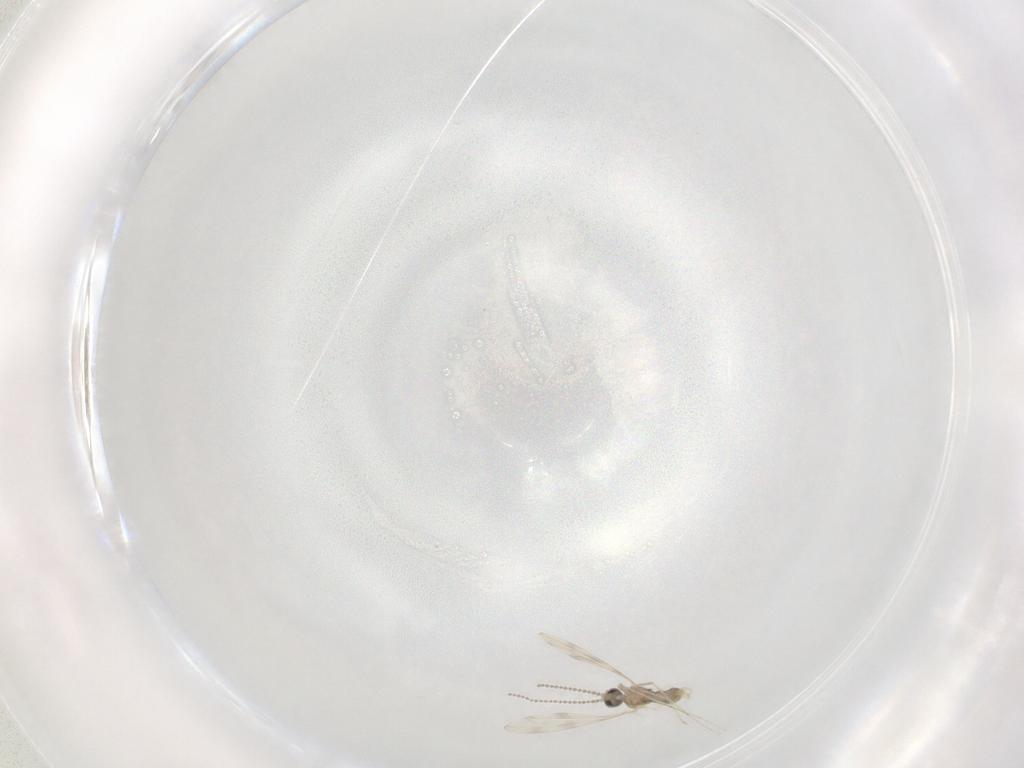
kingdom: Animalia
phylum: Arthropoda
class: Insecta
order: Diptera
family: Cecidomyiidae
